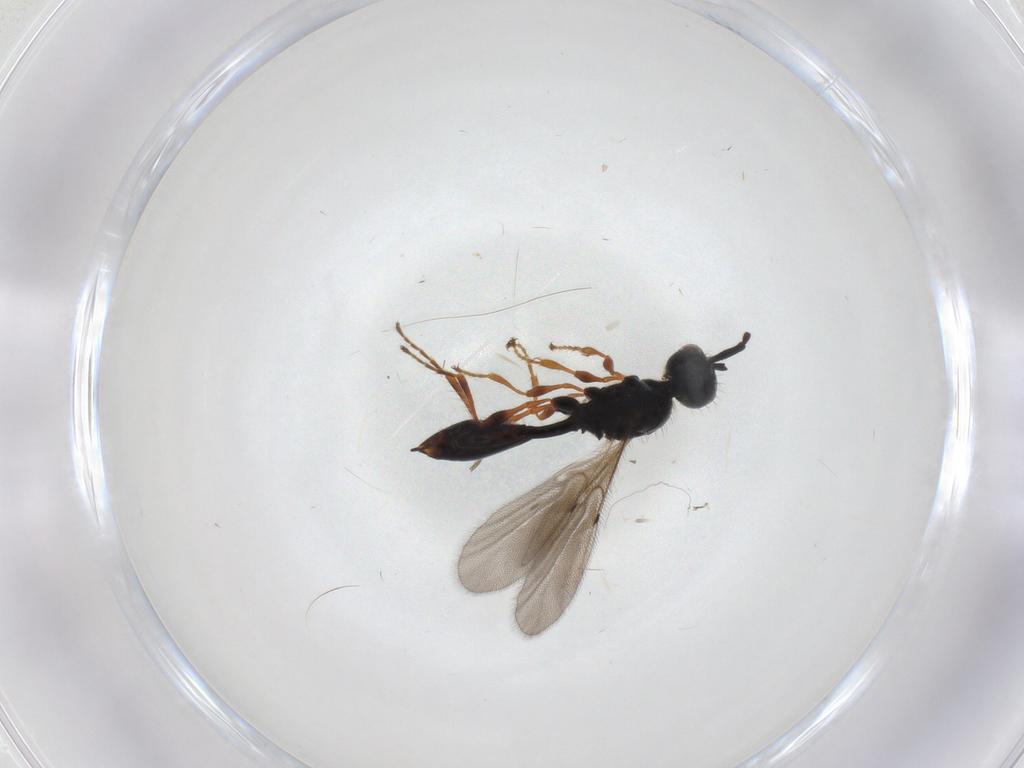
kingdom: Animalia
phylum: Arthropoda
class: Insecta
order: Hymenoptera
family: Diapriidae
